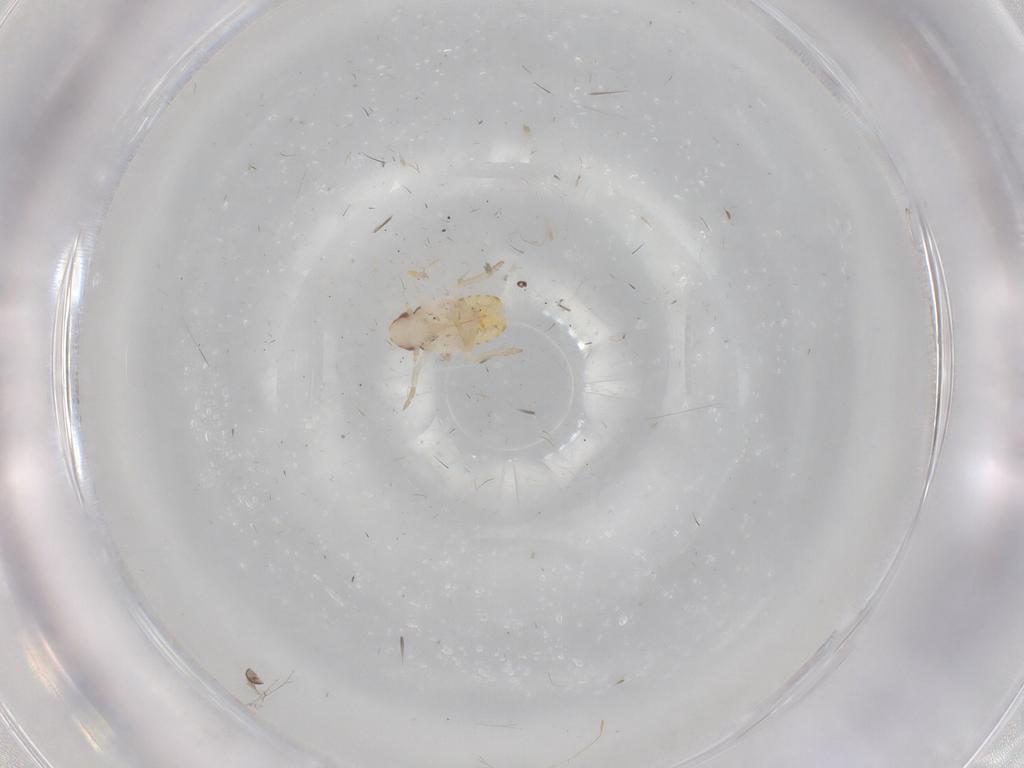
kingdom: Animalia
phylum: Arthropoda
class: Insecta
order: Hemiptera
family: Flatidae
